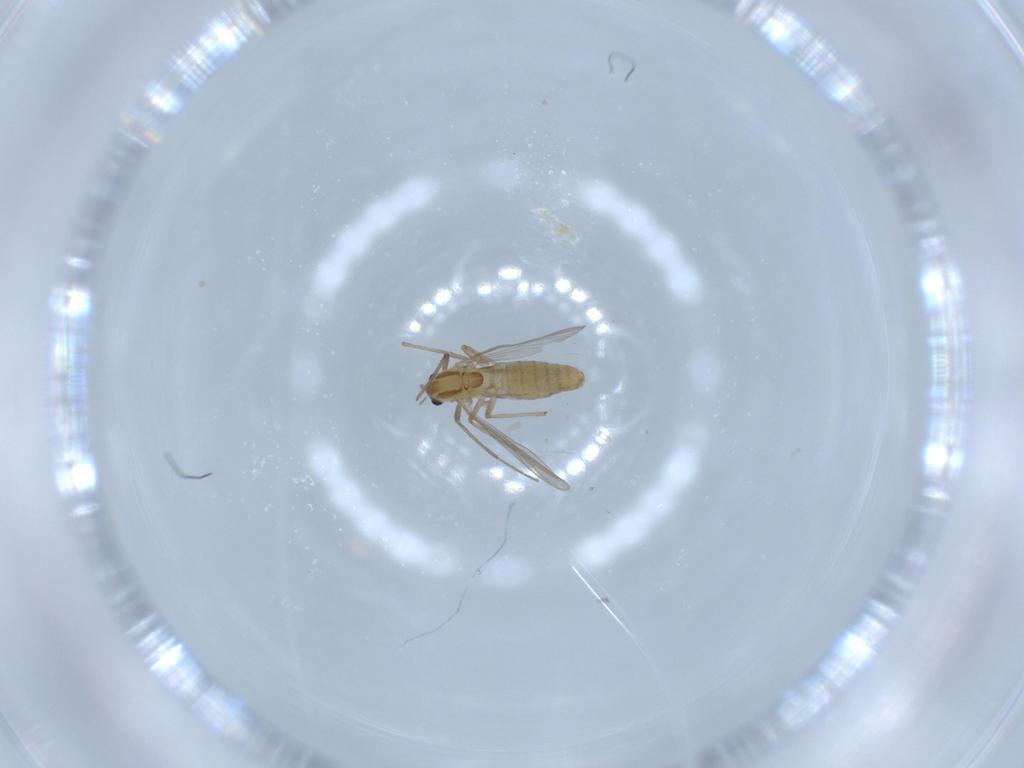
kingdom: Animalia
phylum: Arthropoda
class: Insecta
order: Diptera
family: Chironomidae
